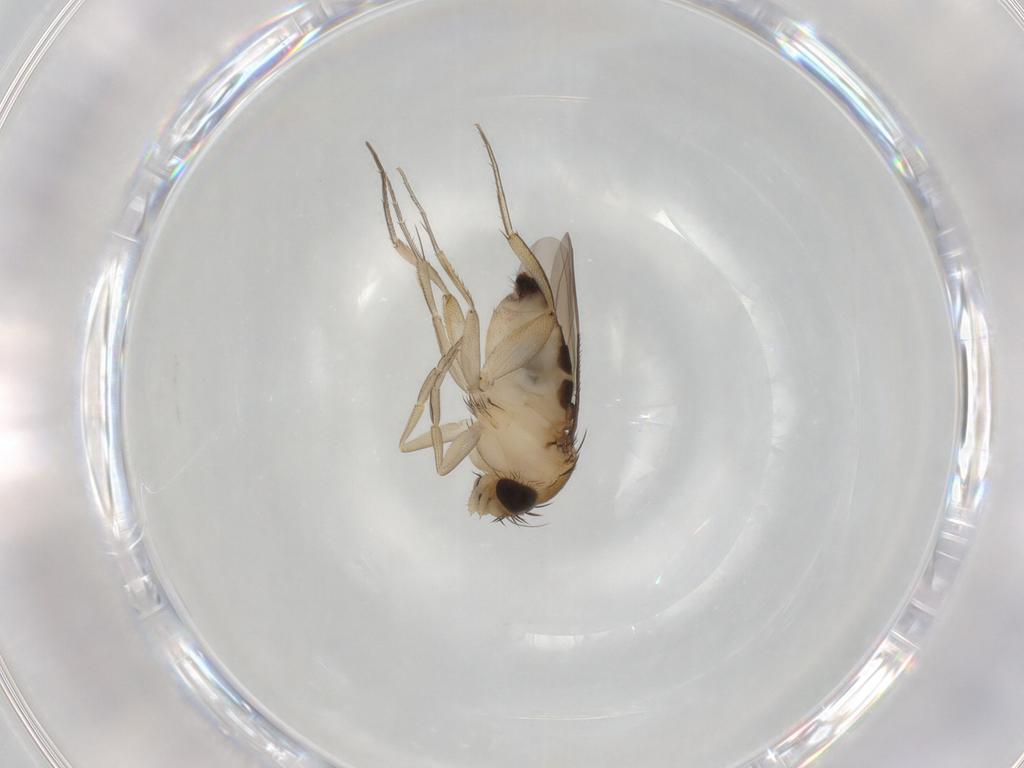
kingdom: Animalia
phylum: Arthropoda
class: Insecta
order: Diptera
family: Phoridae
